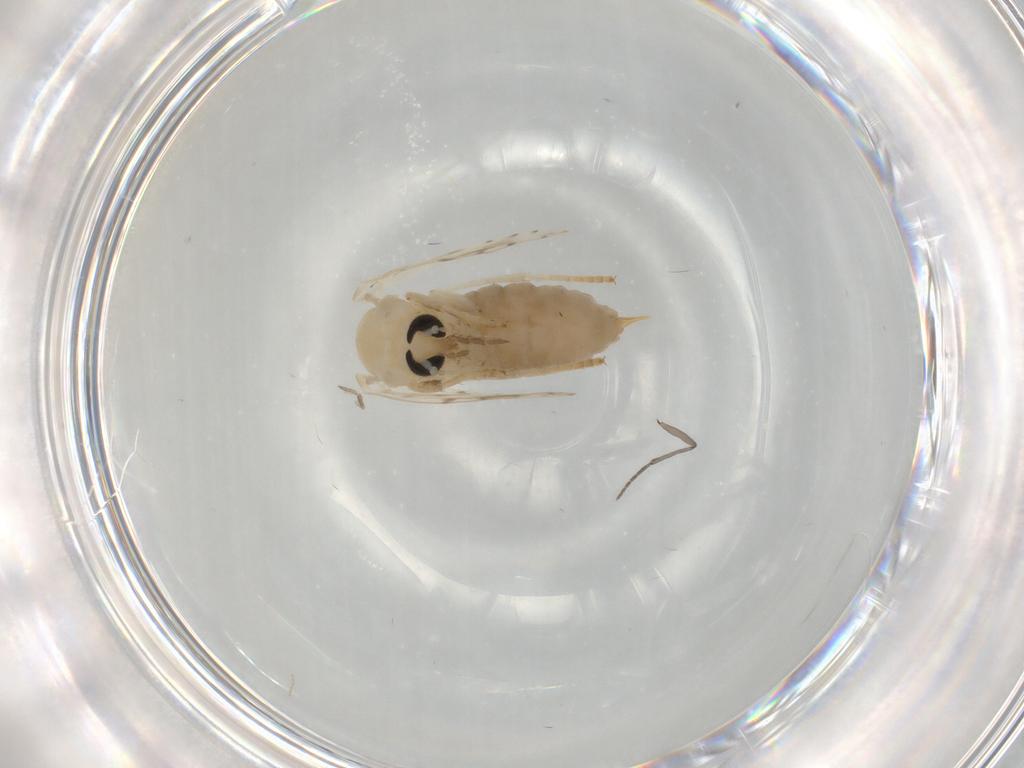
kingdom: Animalia
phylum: Arthropoda
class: Insecta
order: Diptera
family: Psychodidae
